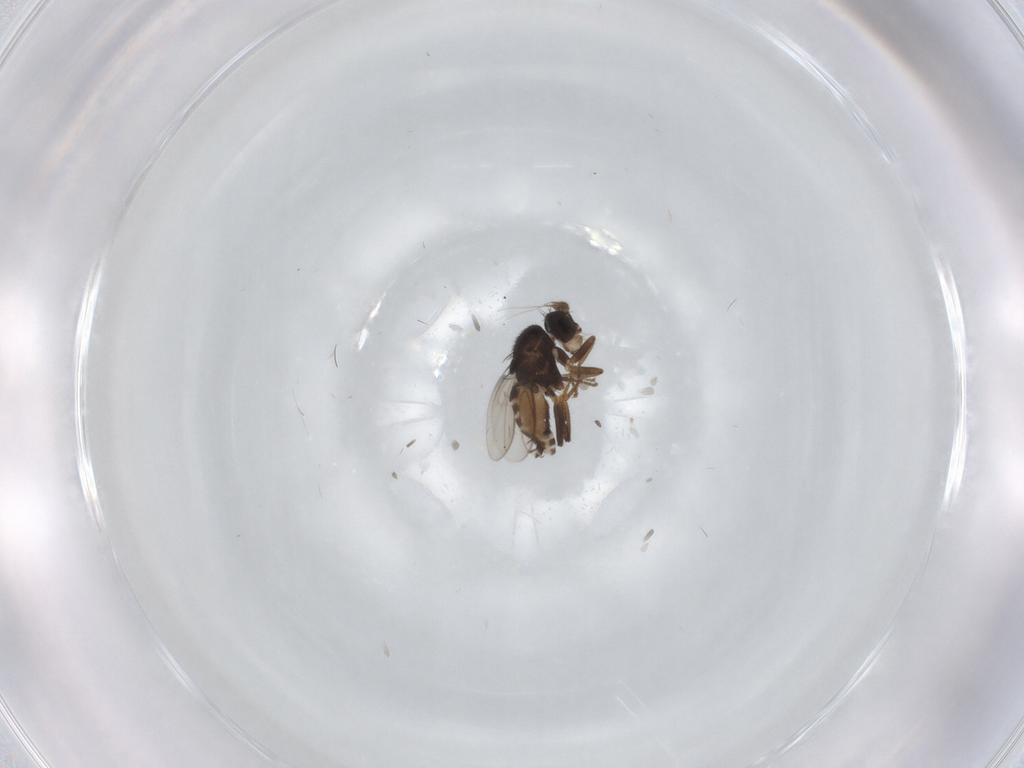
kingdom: Animalia
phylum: Arthropoda
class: Insecta
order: Diptera
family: Sphaeroceridae
